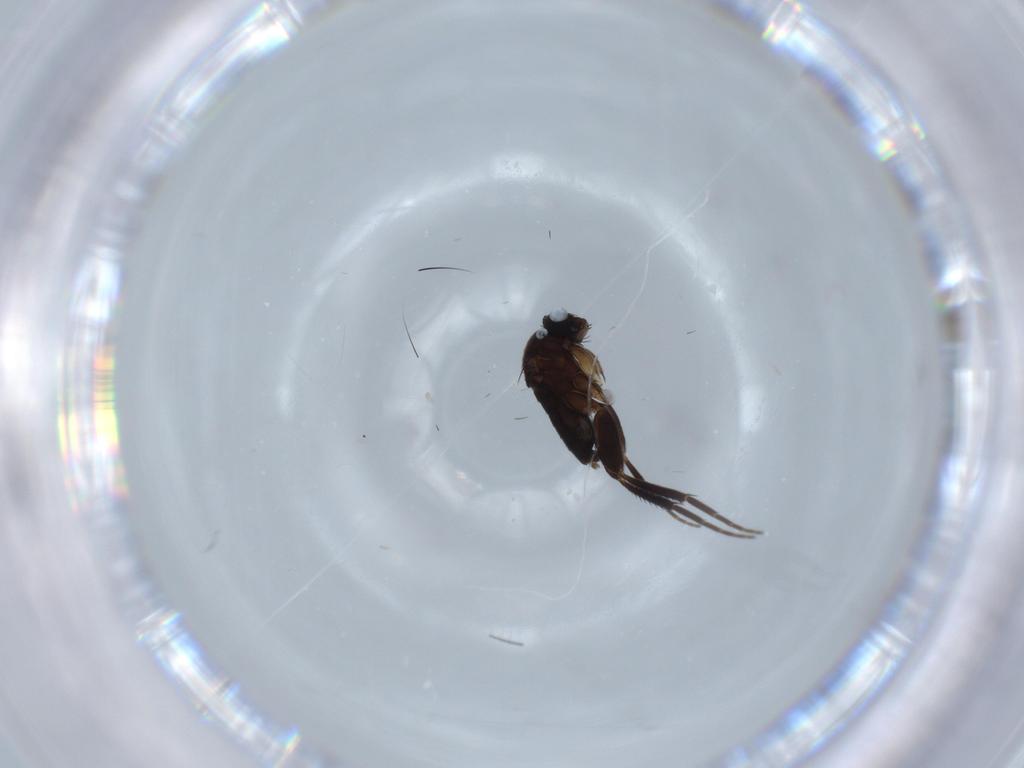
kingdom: Animalia
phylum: Arthropoda
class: Insecta
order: Diptera
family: Phoridae
